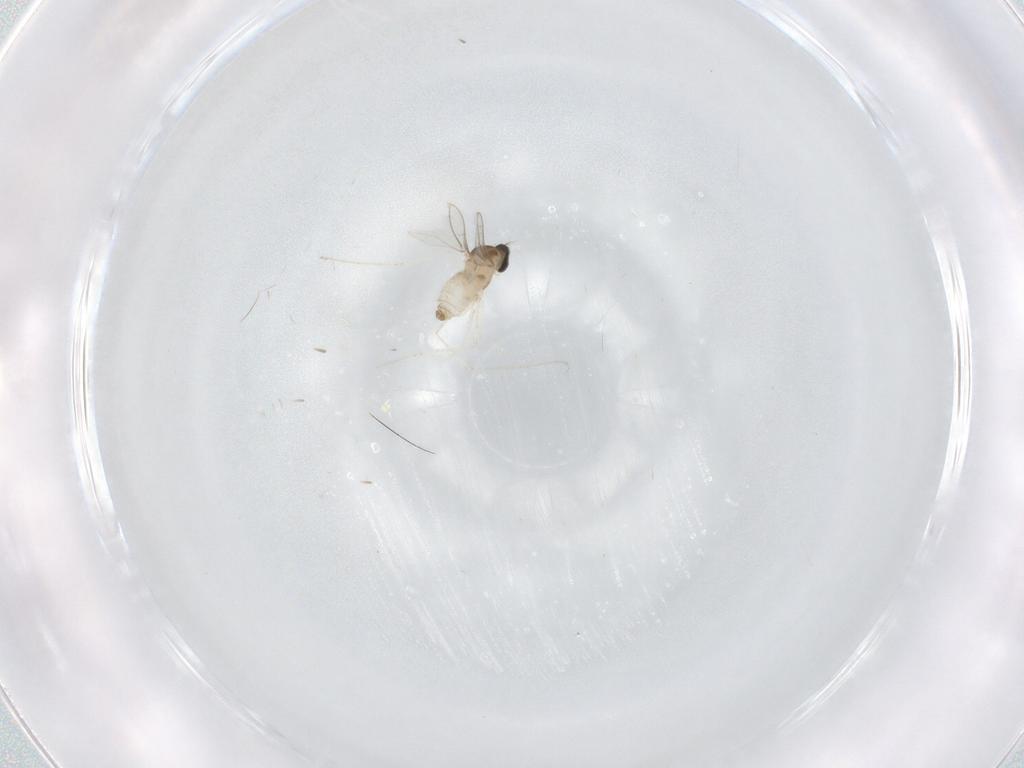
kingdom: Animalia
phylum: Arthropoda
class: Insecta
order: Diptera
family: Cecidomyiidae
